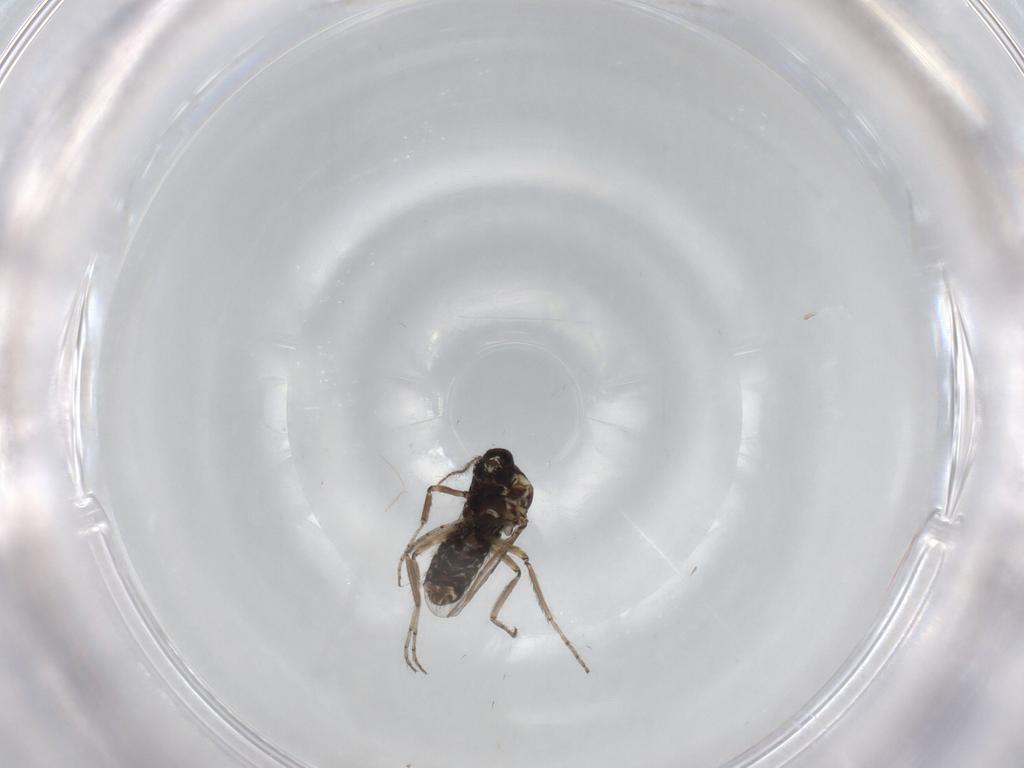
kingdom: Animalia
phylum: Arthropoda
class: Insecta
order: Diptera
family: Ceratopogonidae
